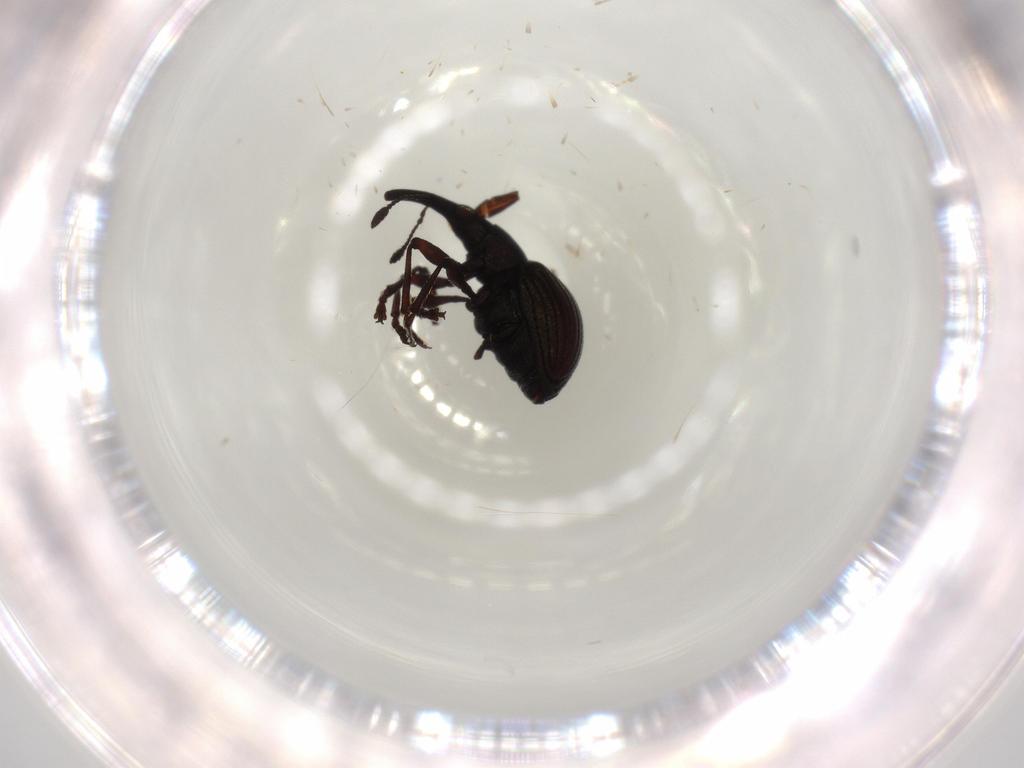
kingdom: Animalia
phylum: Arthropoda
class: Insecta
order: Coleoptera
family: Brentidae
